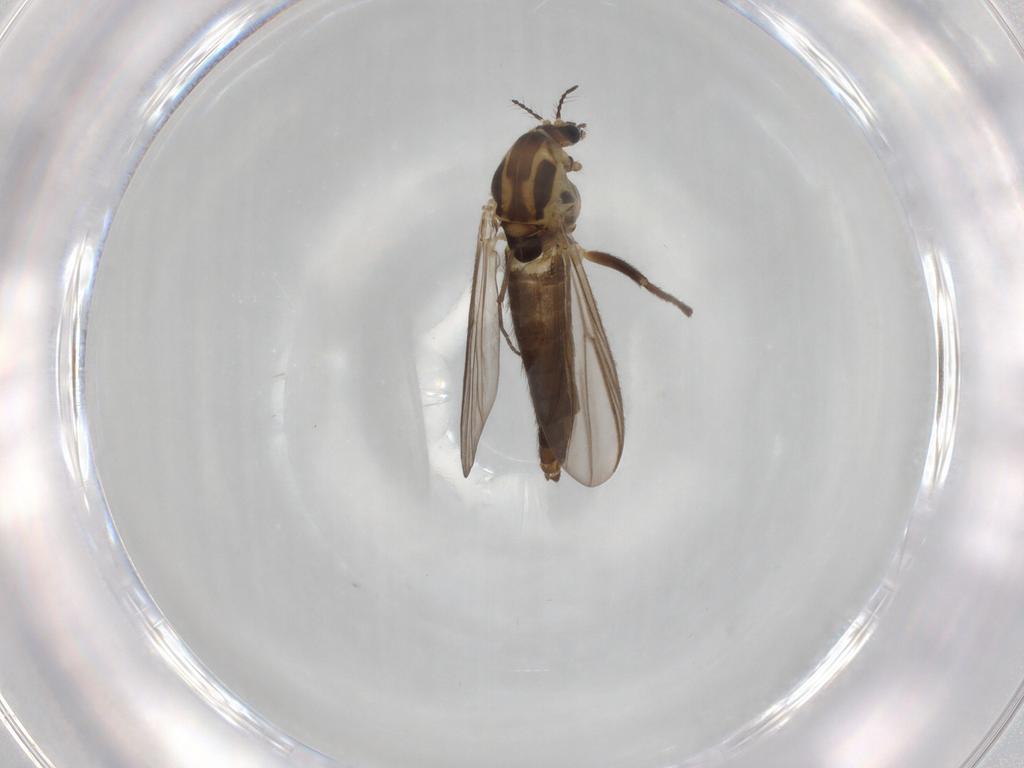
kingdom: Animalia
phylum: Arthropoda
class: Insecta
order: Diptera
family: Chironomidae
